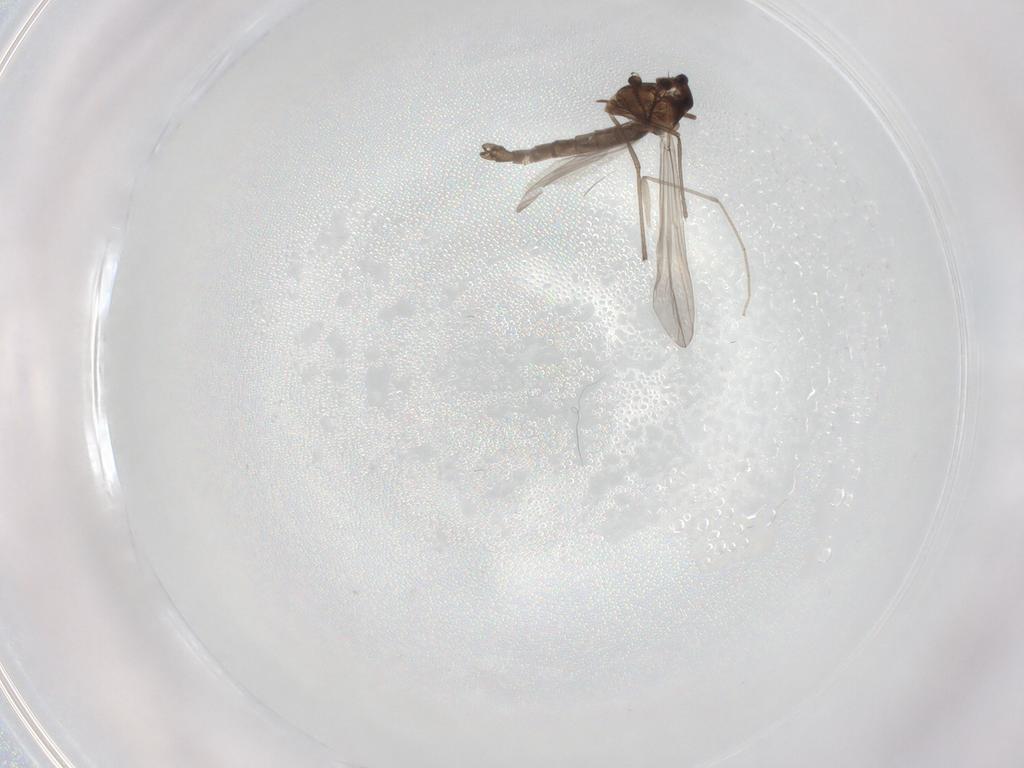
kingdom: Animalia
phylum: Arthropoda
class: Insecta
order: Diptera
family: Chironomidae
